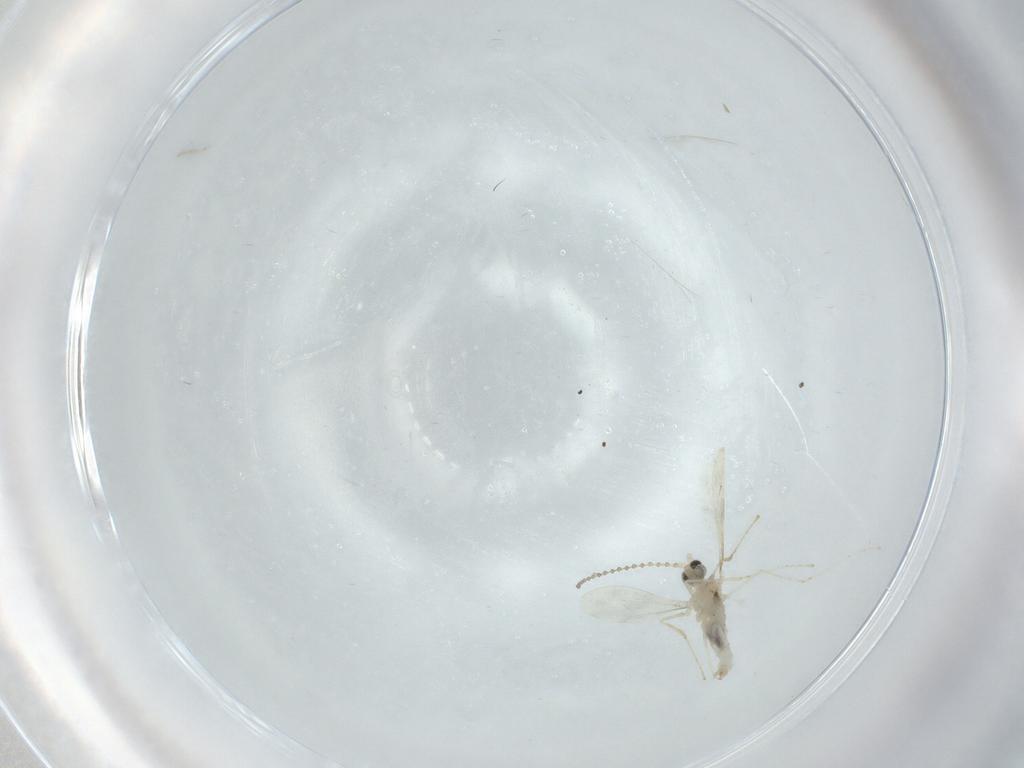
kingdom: Animalia
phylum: Arthropoda
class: Insecta
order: Diptera
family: Cecidomyiidae
